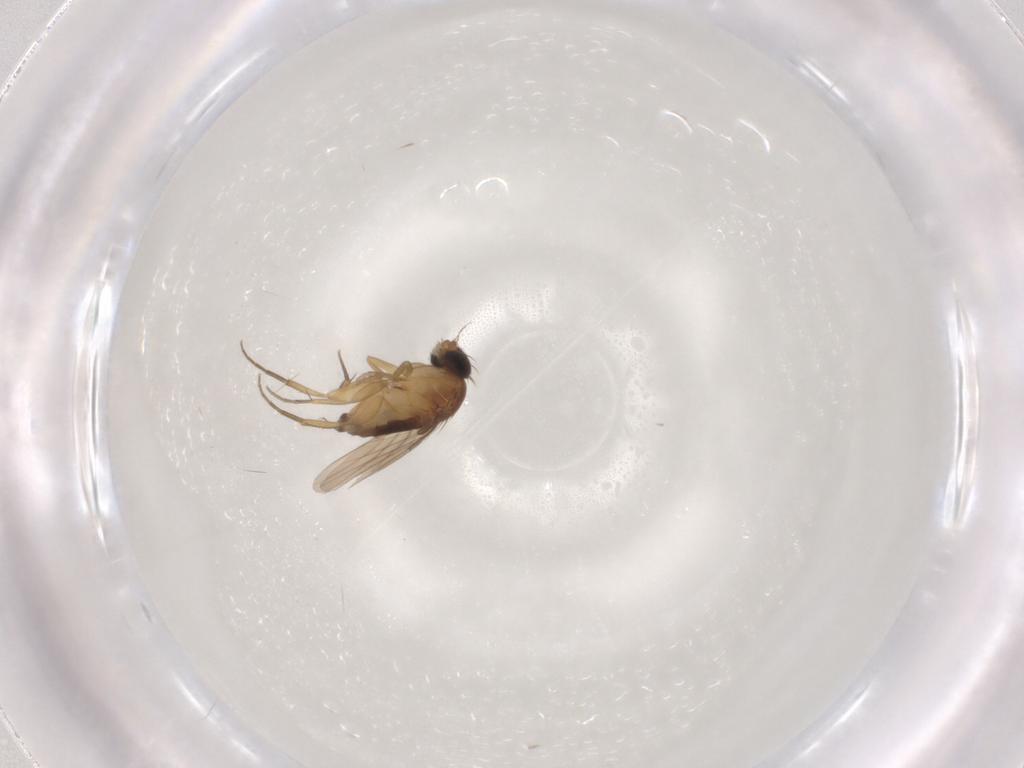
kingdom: Animalia
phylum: Arthropoda
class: Insecta
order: Diptera
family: Phoridae
